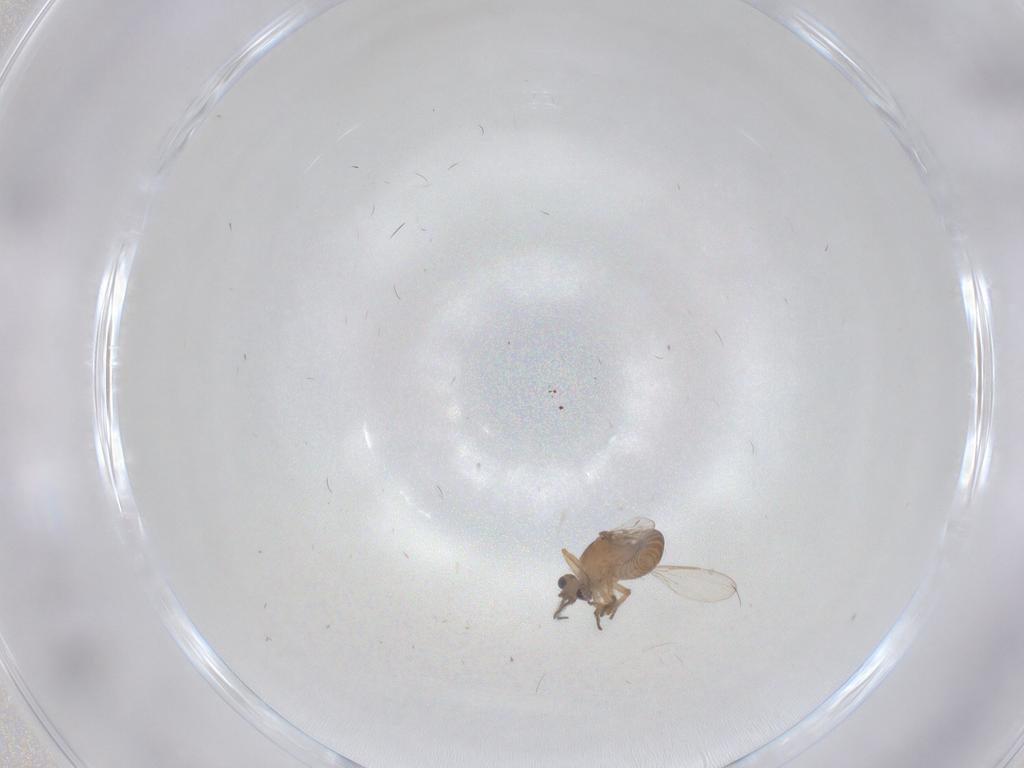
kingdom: Animalia
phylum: Arthropoda
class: Insecta
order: Diptera
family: Ceratopogonidae
